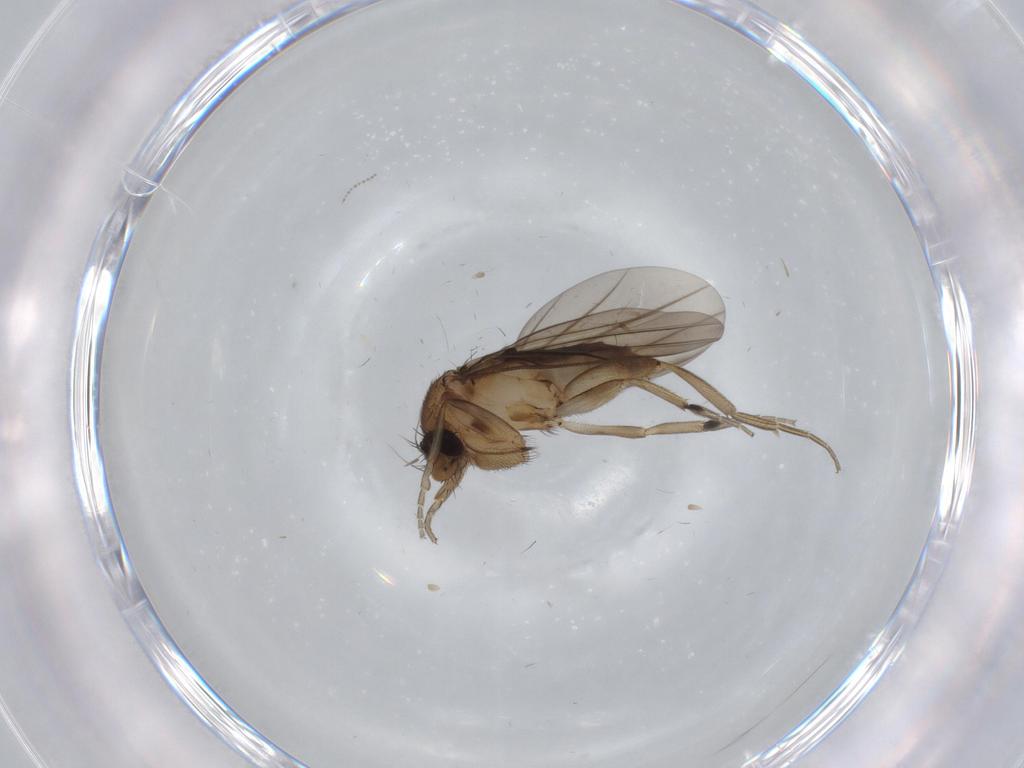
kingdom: Animalia
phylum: Arthropoda
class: Insecta
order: Diptera
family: Phoridae
